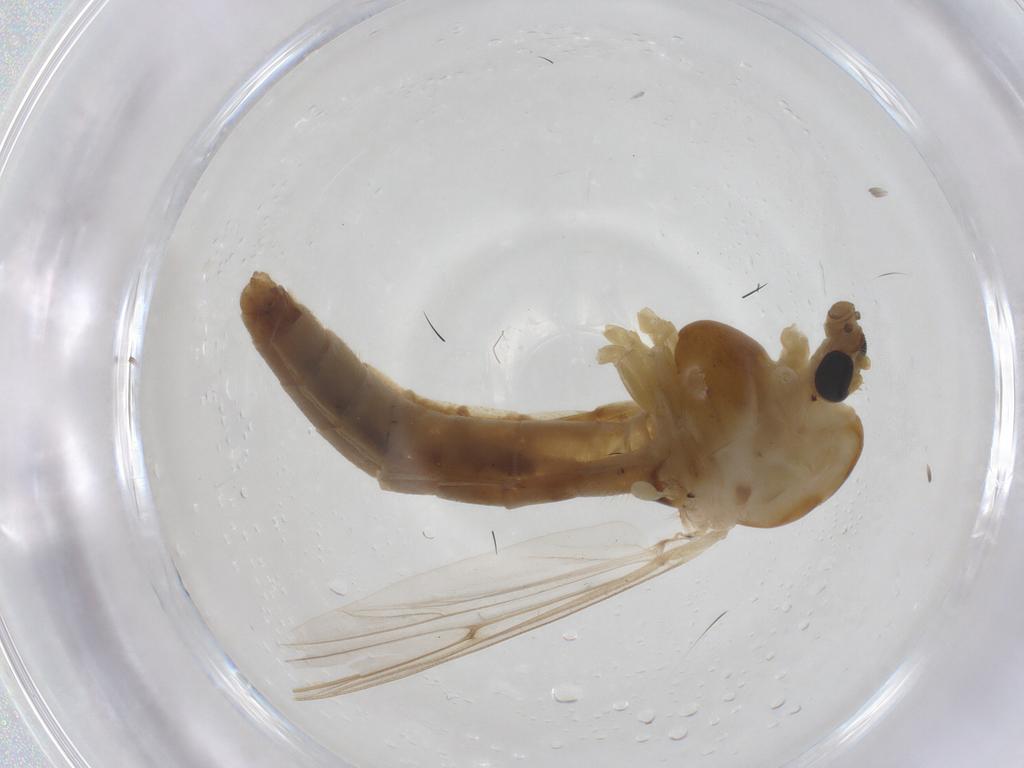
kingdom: Animalia
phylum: Arthropoda
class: Insecta
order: Diptera
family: Chironomidae
